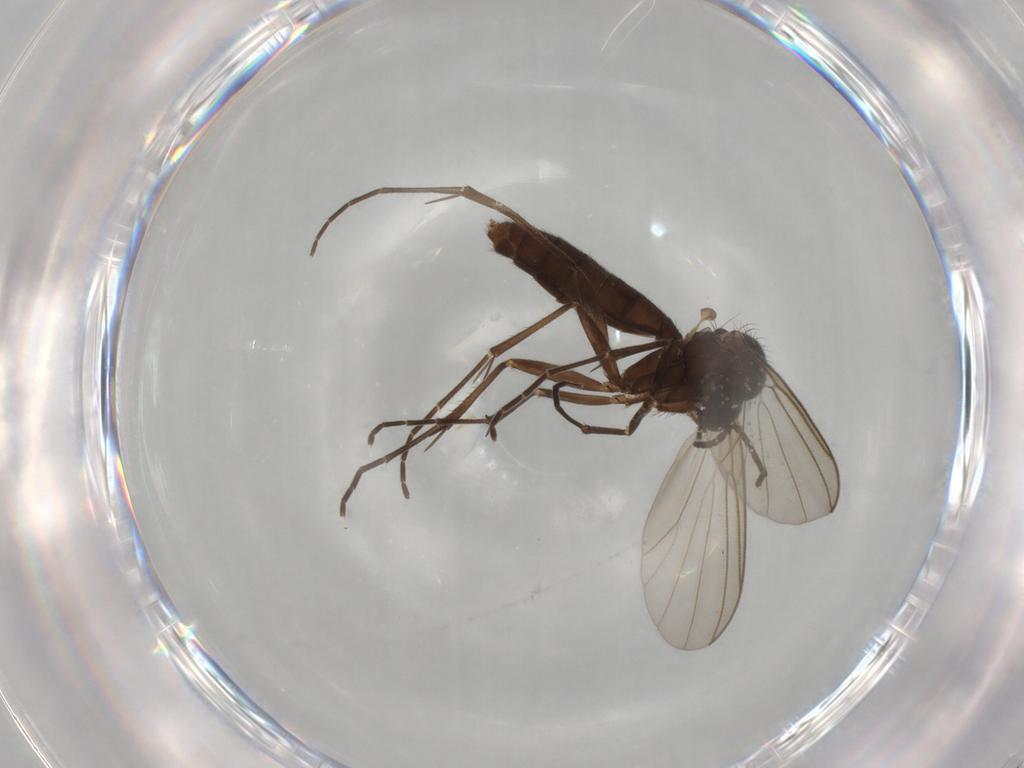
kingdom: Animalia
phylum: Arthropoda
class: Insecta
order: Diptera
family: Mycetophilidae
